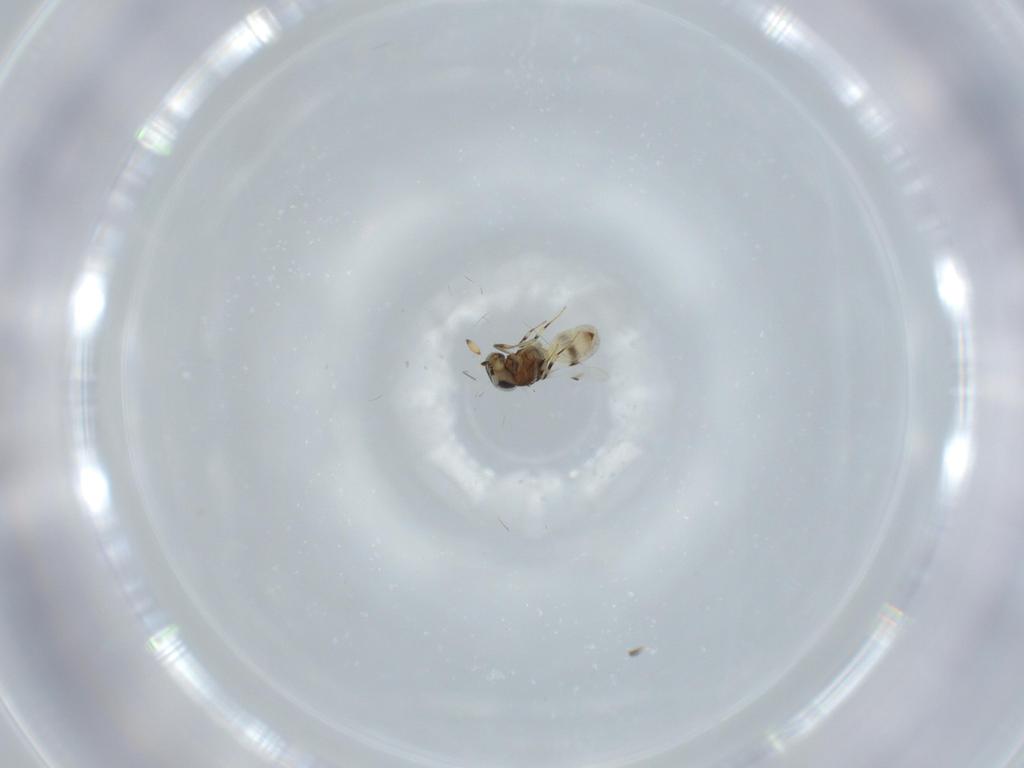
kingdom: Animalia
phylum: Arthropoda
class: Insecta
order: Hymenoptera
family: Scelionidae
